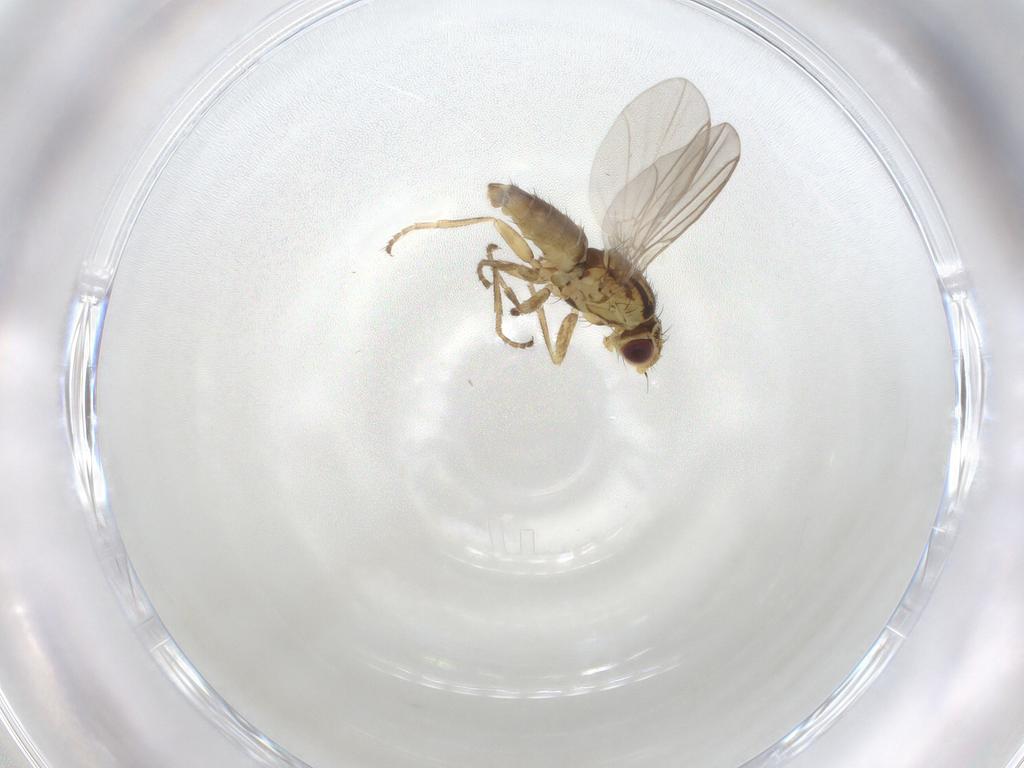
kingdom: Animalia
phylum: Arthropoda
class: Insecta
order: Diptera
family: Agromyzidae
